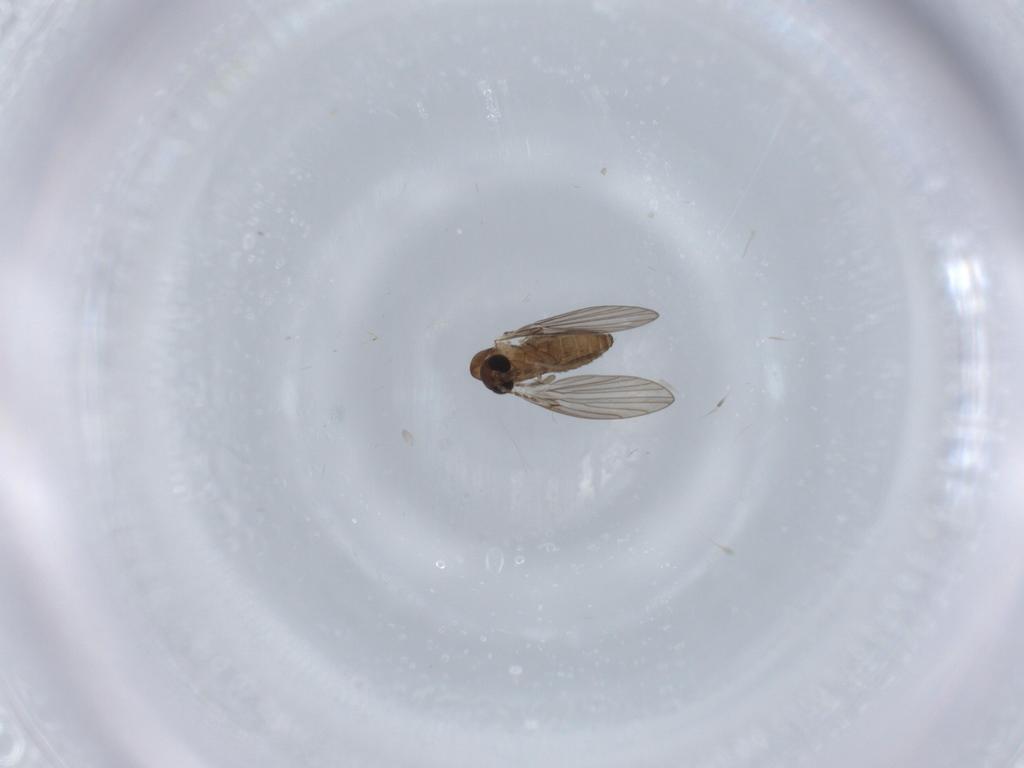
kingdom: Animalia
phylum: Arthropoda
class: Insecta
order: Diptera
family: Psychodidae
